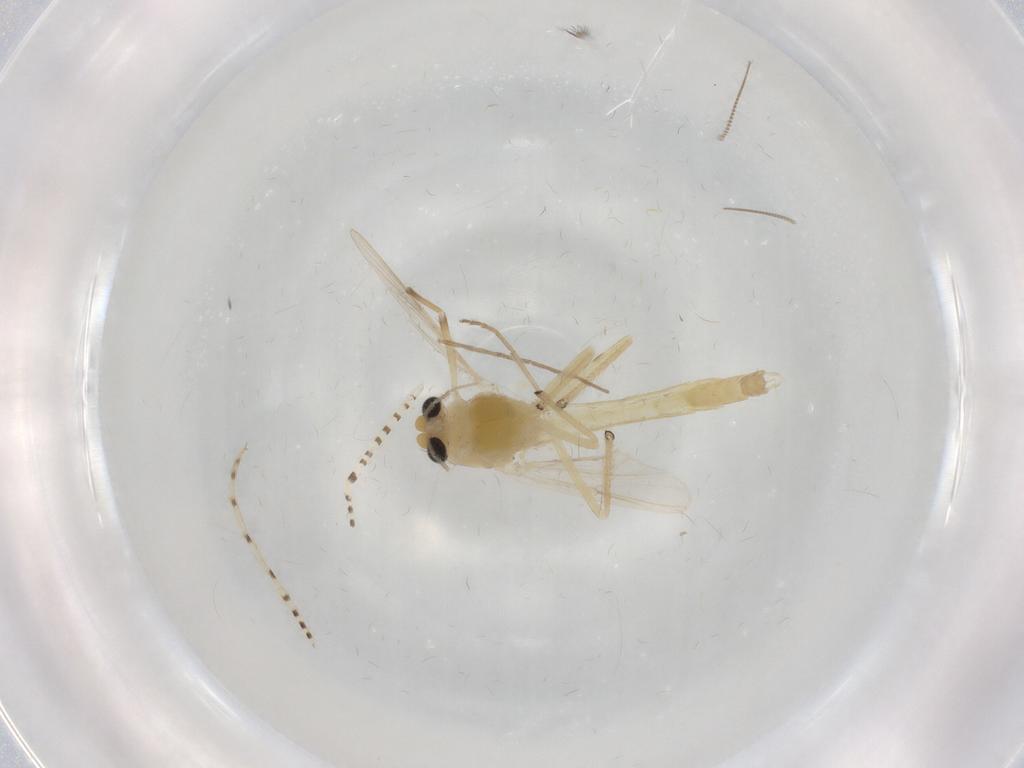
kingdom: Animalia
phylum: Arthropoda
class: Insecta
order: Diptera
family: Chironomidae
